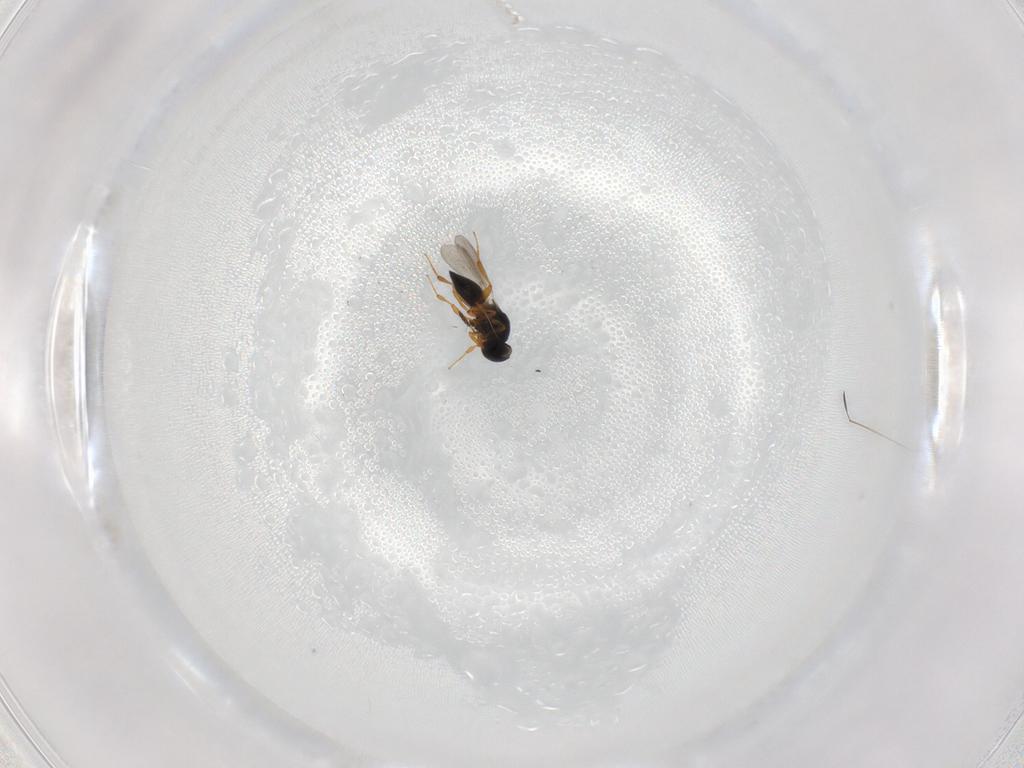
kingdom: Animalia
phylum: Arthropoda
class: Insecta
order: Hymenoptera
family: Platygastridae
